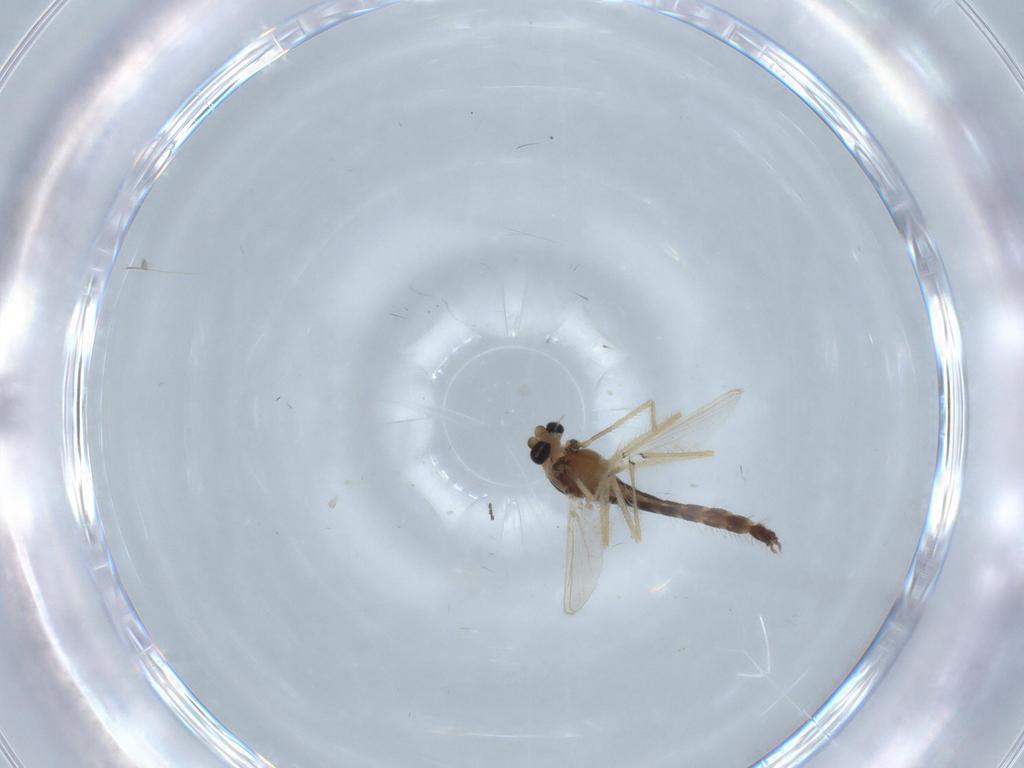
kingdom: Animalia
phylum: Arthropoda
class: Insecta
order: Diptera
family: Chironomidae
